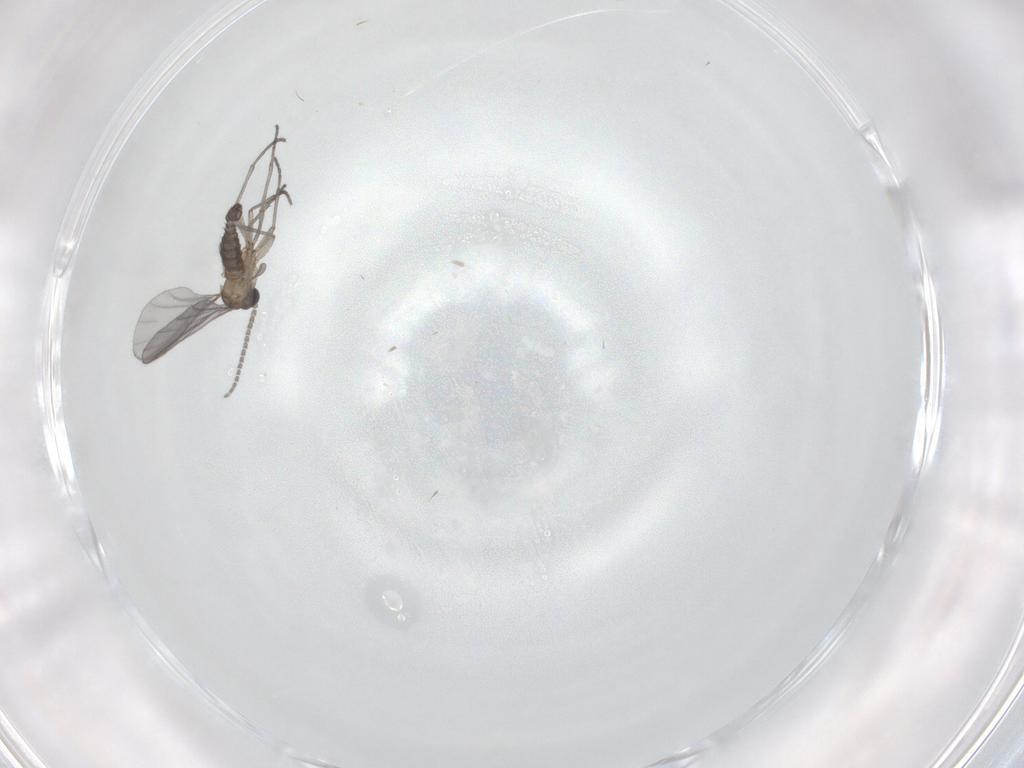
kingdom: Animalia
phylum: Arthropoda
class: Insecta
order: Diptera
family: Sciaridae
